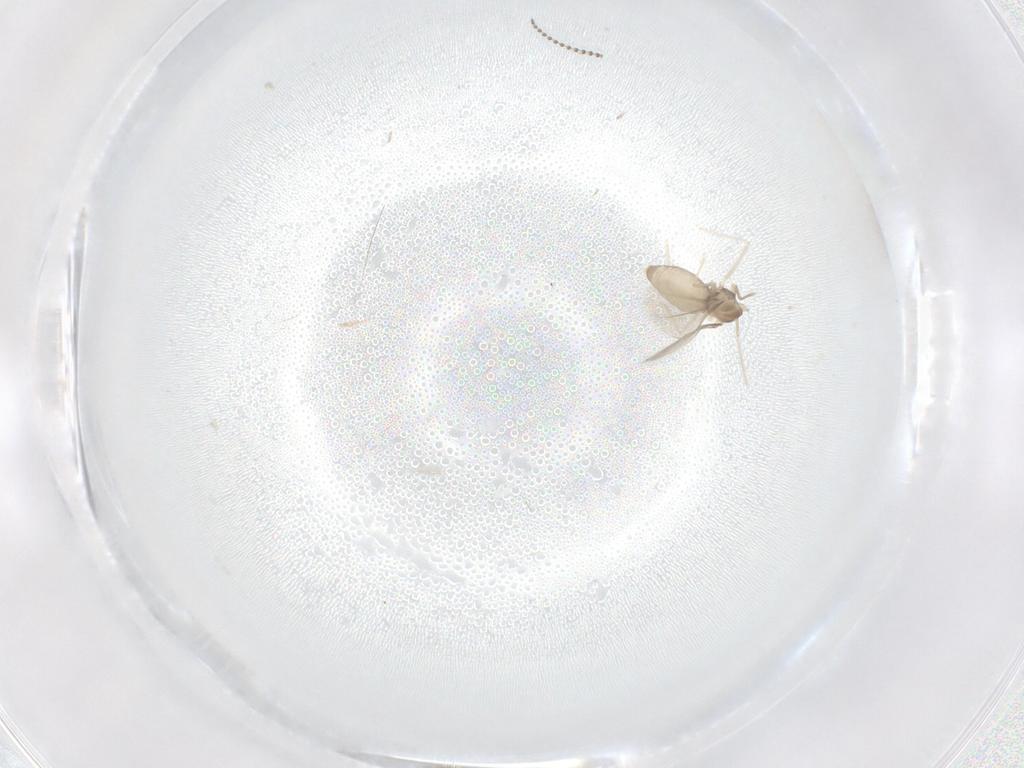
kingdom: Animalia
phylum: Arthropoda
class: Insecta
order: Diptera
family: Cecidomyiidae
